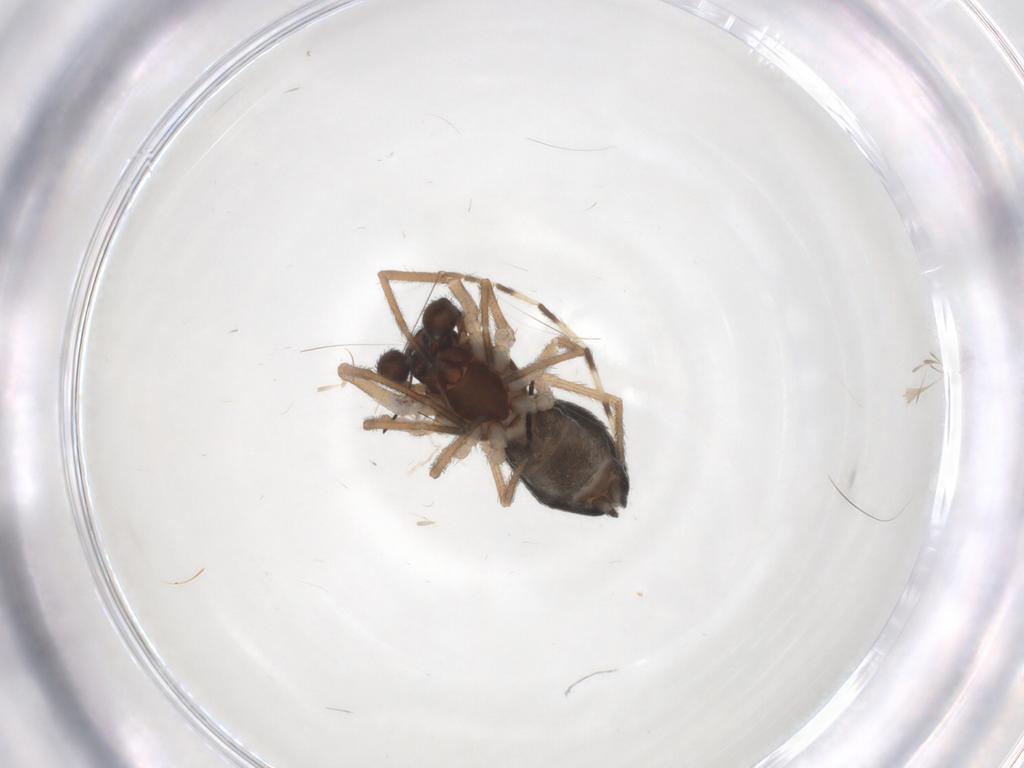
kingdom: Animalia
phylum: Arthropoda
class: Arachnida
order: Araneae
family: Dictynidae
